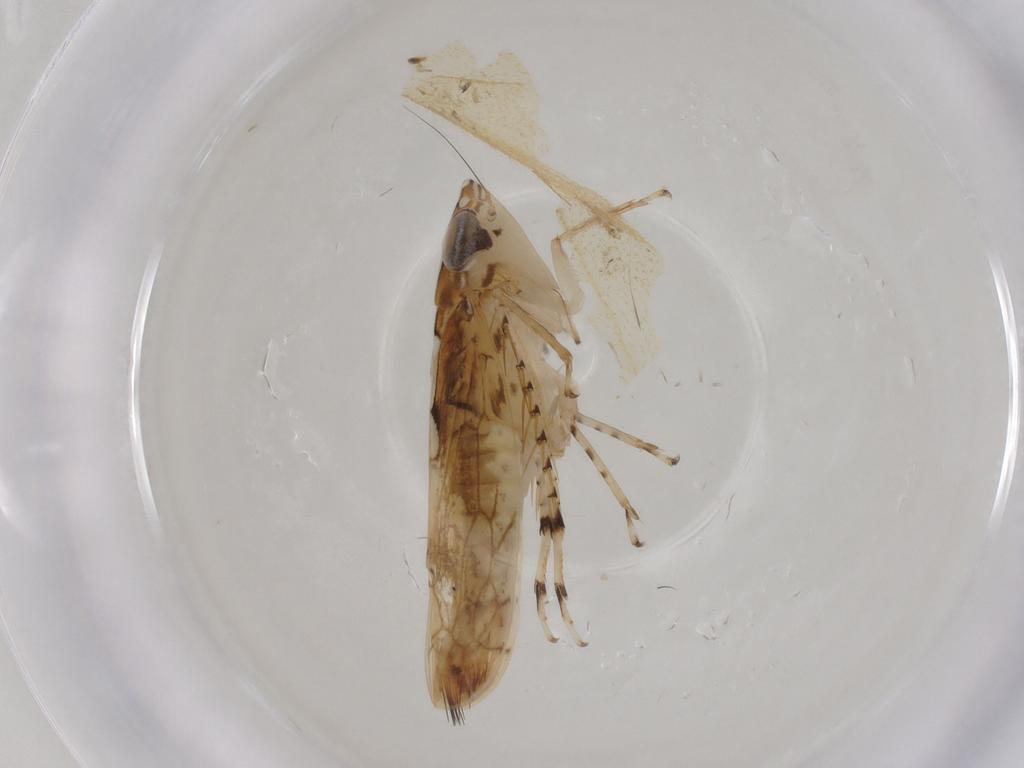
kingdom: Animalia
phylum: Arthropoda
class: Insecta
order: Hemiptera
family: Cicadellidae
